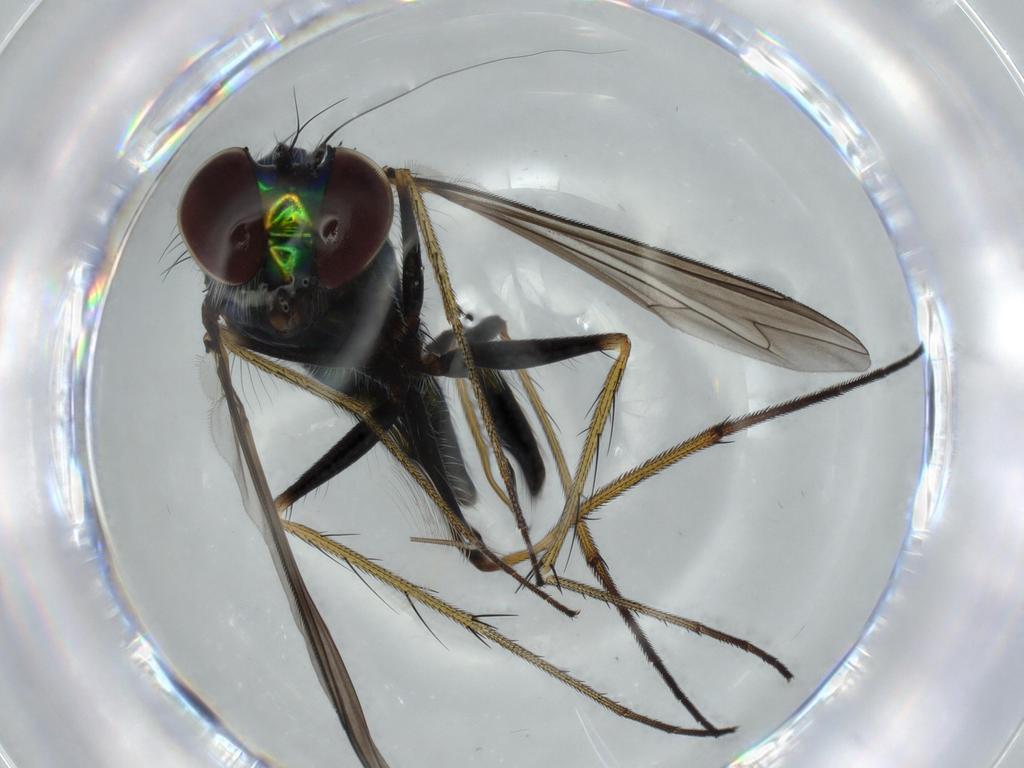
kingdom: Animalia
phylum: Arthropoda
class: Insecta
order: Diptera
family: Dolichopodidae
